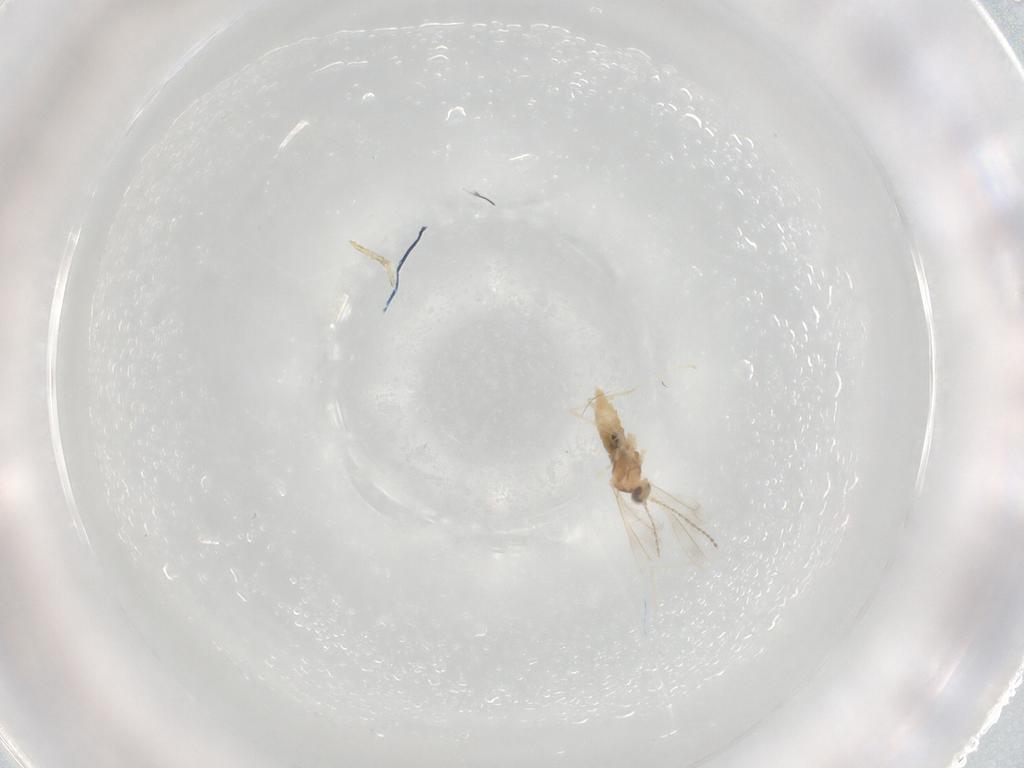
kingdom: Animalia
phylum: Arthropoda
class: Insecta
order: Diptera
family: Cecidomyiidae
